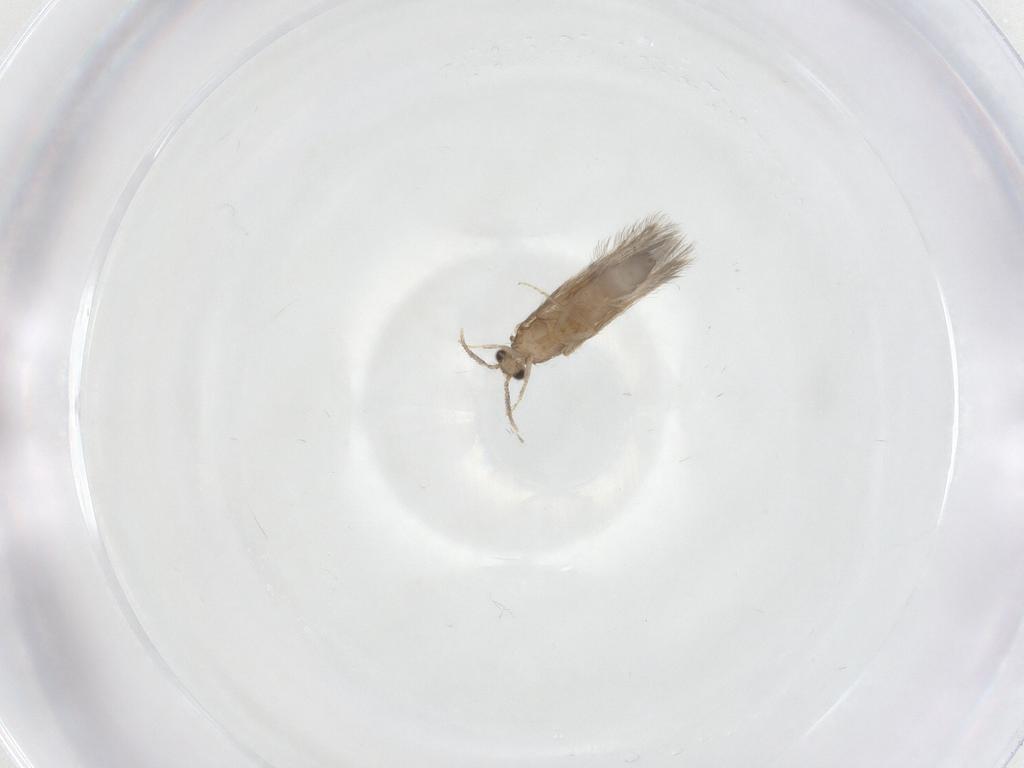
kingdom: Animalia
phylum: Arthropoda
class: Insecta
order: Trichoptera
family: Hydroptilidae
